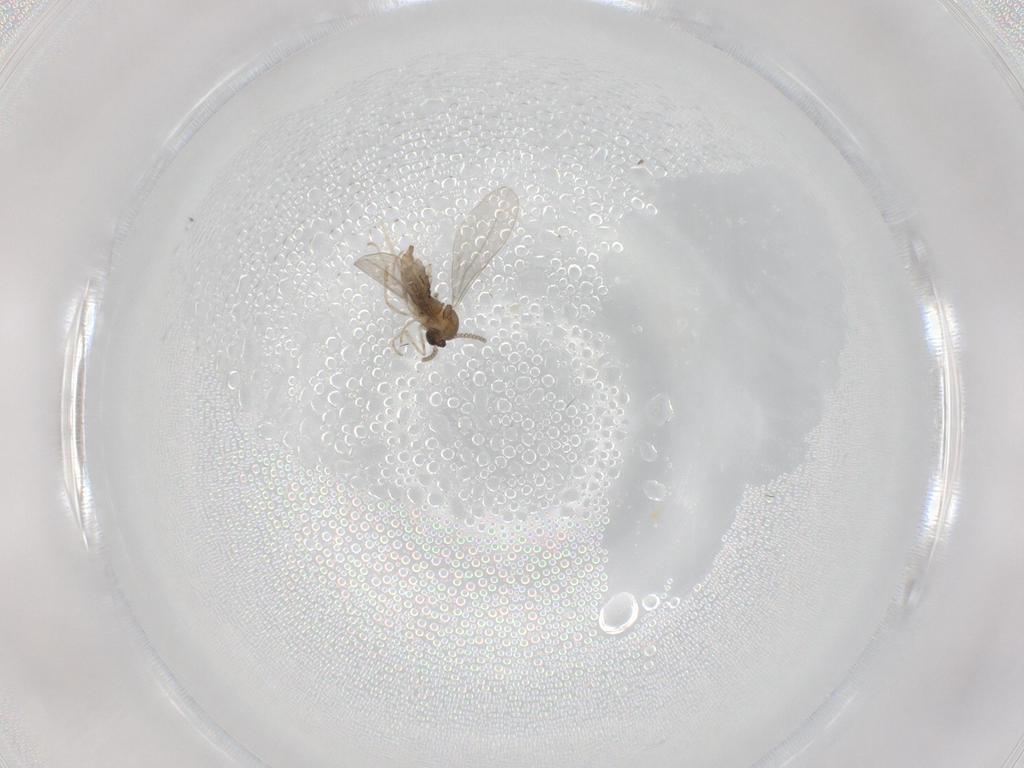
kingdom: Animalia
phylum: Arthropoda
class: Insecta
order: Diptera
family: Cecidomyiidae
